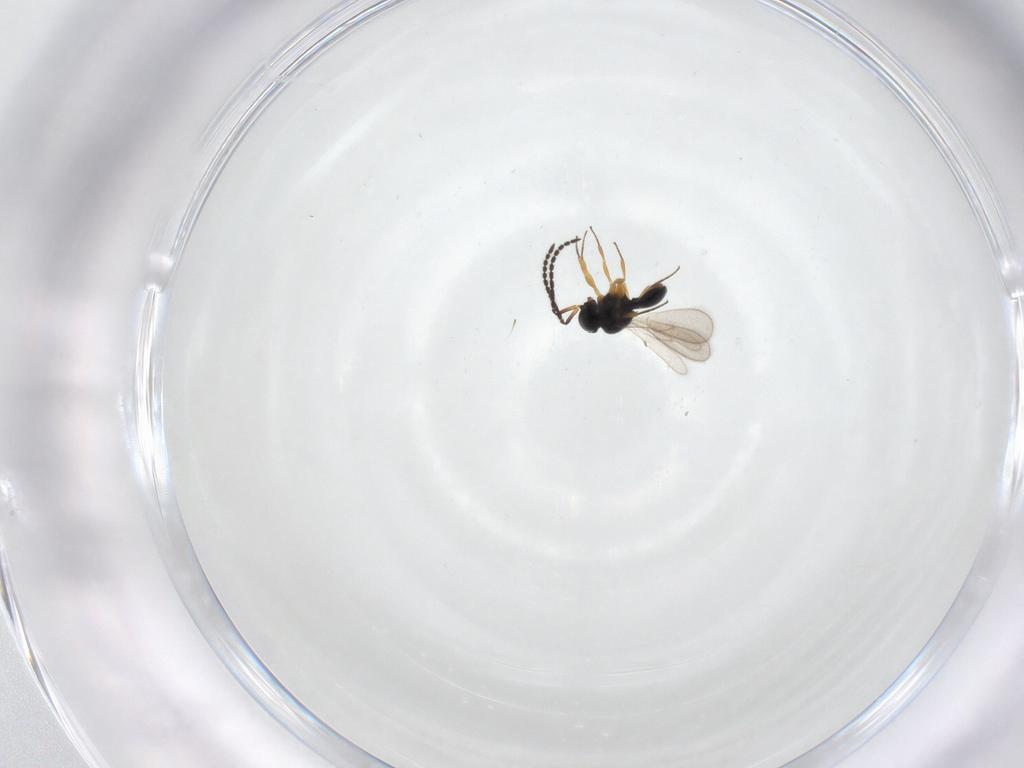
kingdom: Animalia
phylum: Arthropoda
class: Insecta
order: Hymenoptera
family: Scelionidae
